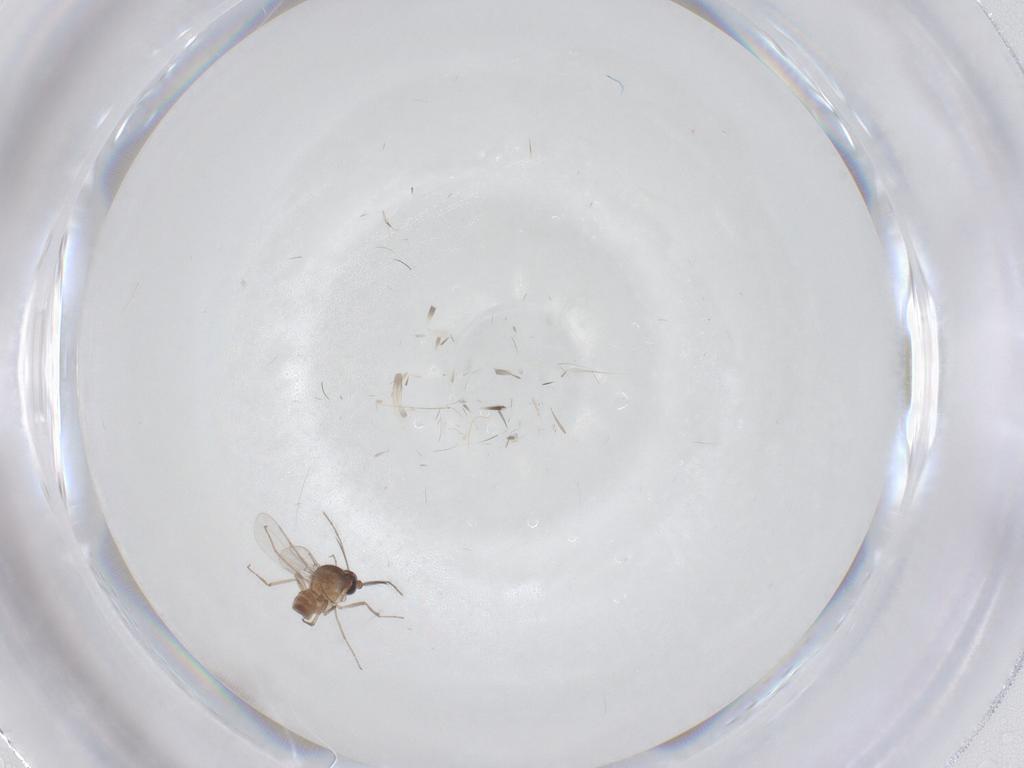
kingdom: Animalia
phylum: Arthropoda
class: Insecta
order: Diptera
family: Ceratopogonidae
